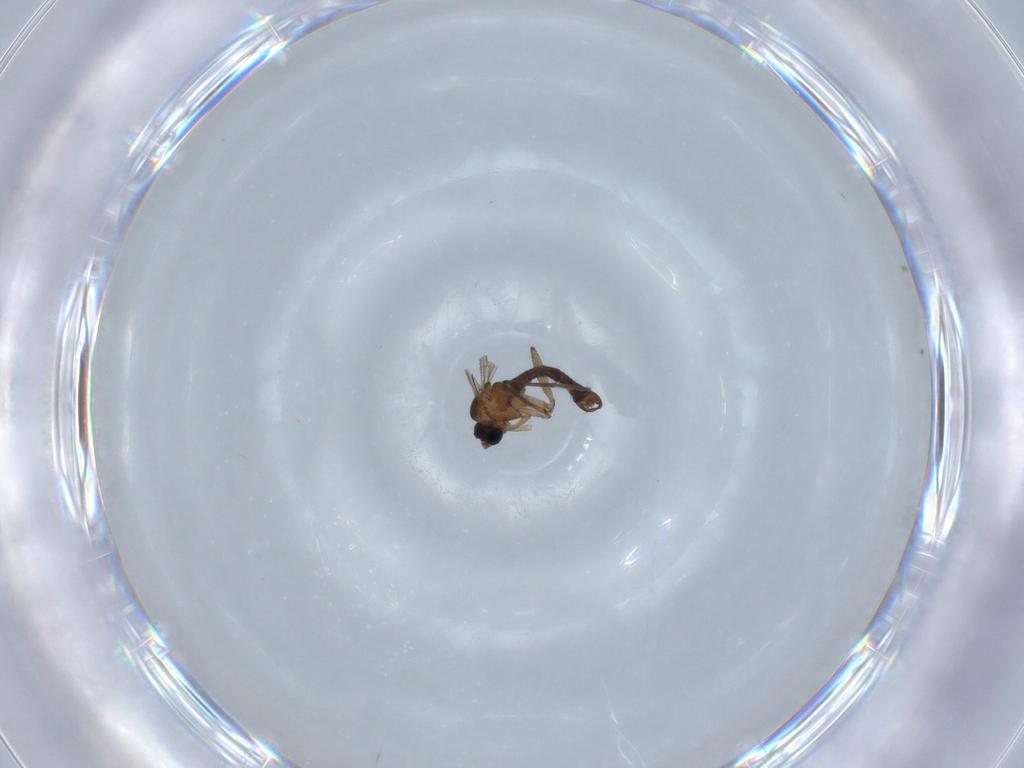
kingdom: Animalia
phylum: Arthropoda
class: Insecta
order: Diptera
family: Sciaridae
